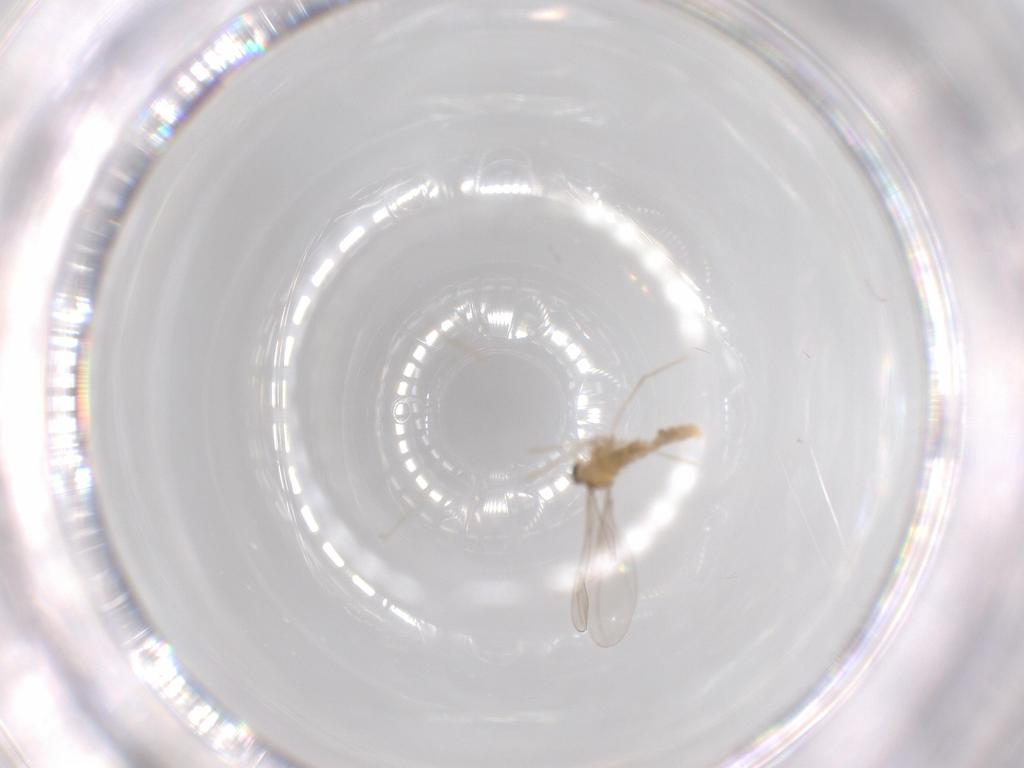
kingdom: Animalia
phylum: Arthropoda
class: Insecta
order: Diptera
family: Cecidomyiidae
